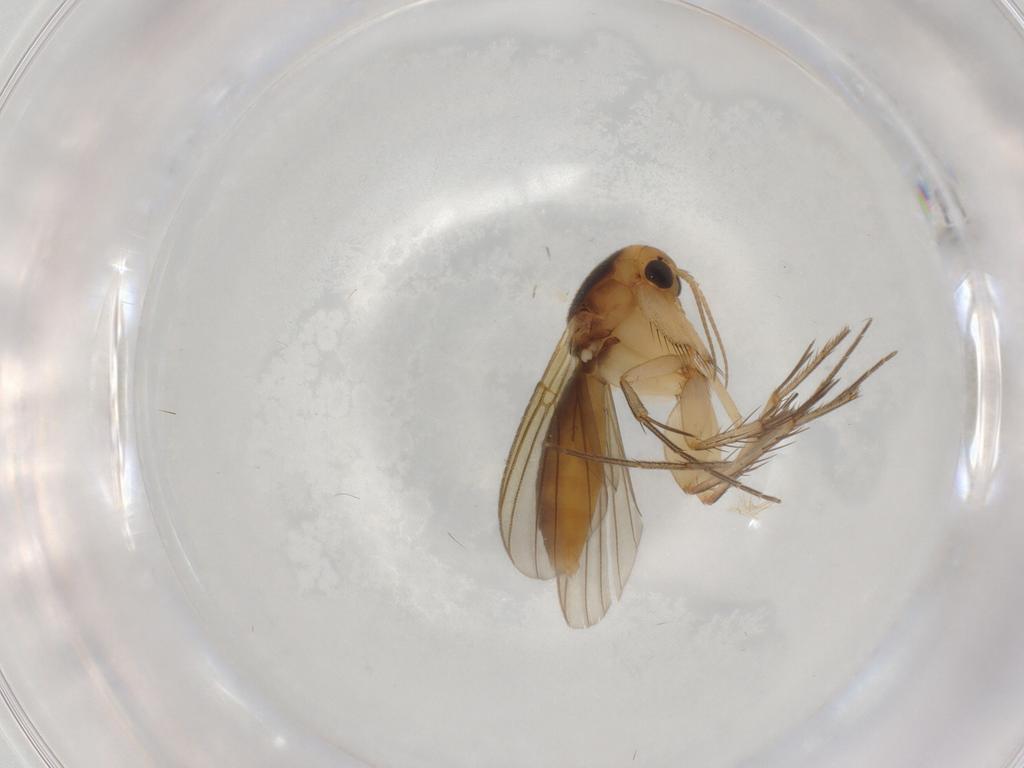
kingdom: Animalia
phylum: Arthropoda
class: Insecta
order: Diptera
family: Mycetophilidae
